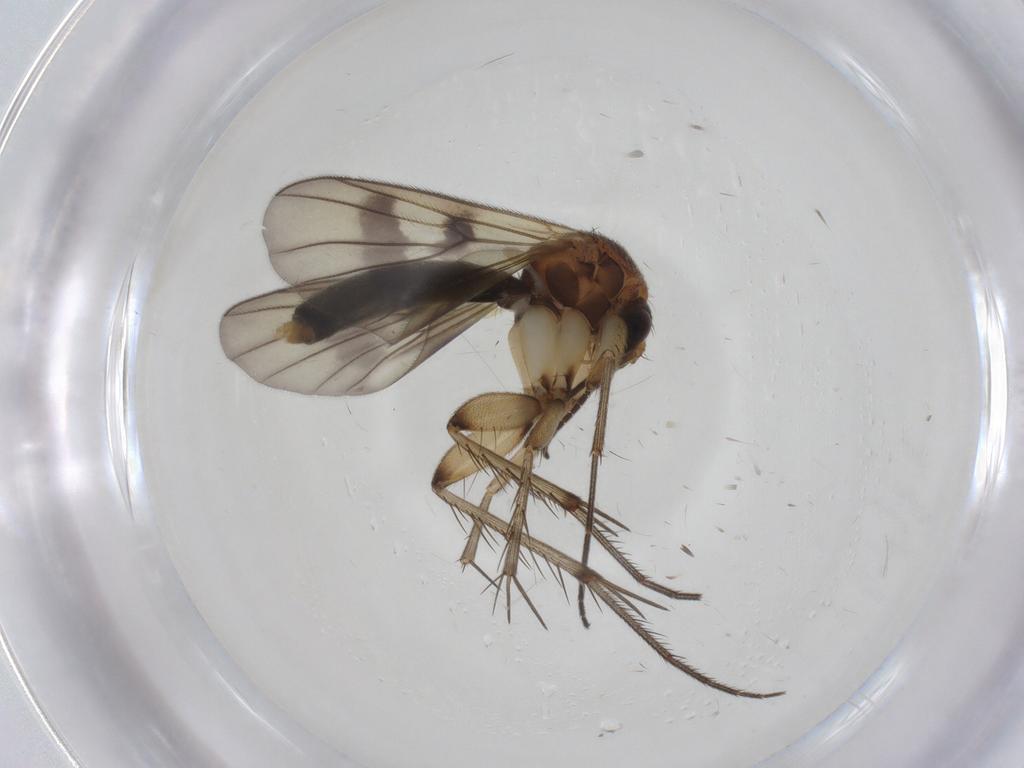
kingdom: Animalia
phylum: Arthropoda
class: Insecta
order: Diptera
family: Mycetophilidae
